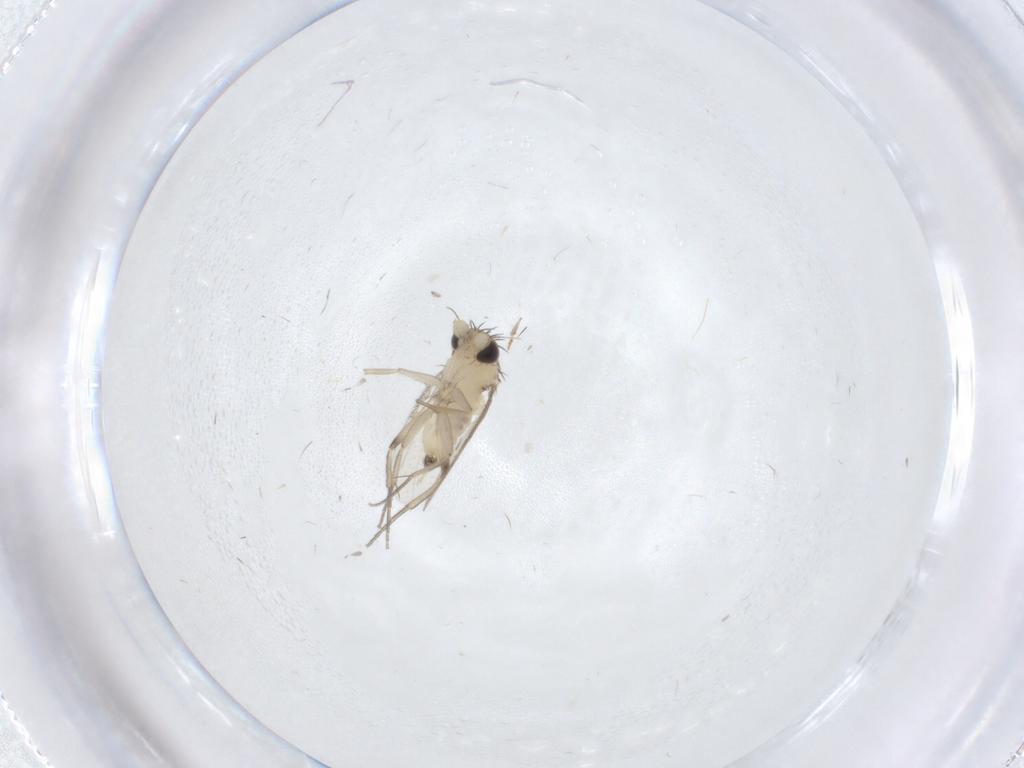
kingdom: Animalia
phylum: Arthropoda
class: Insecta
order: Diptera
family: Phoridae
